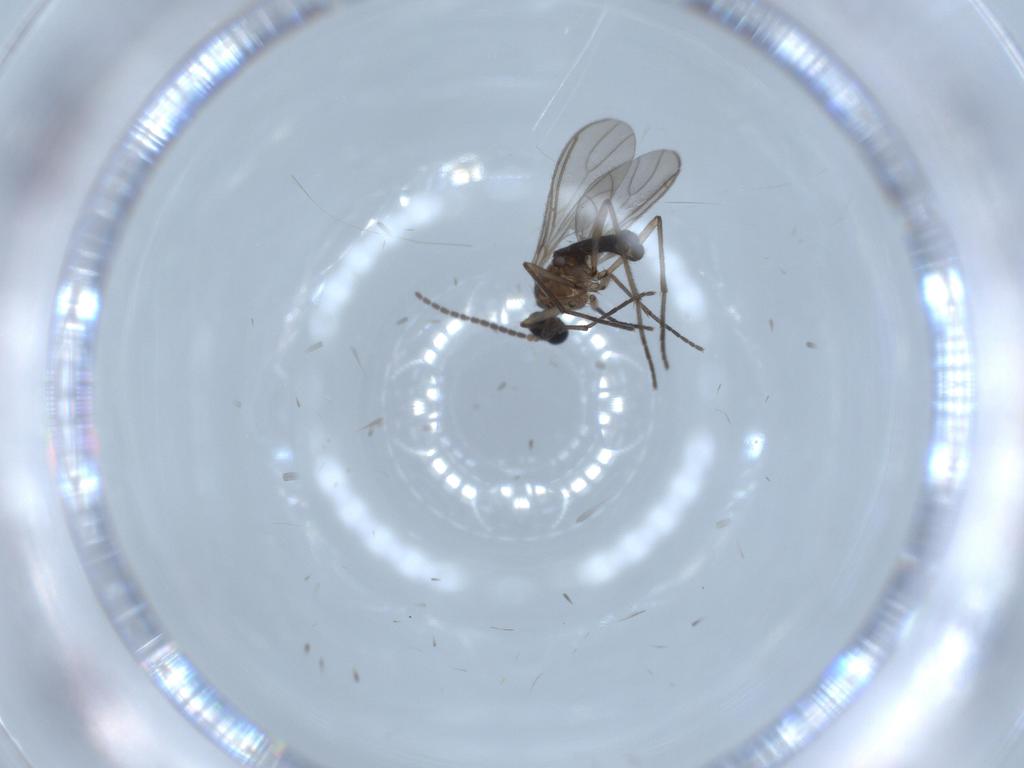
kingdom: Animalia
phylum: Arthropoda
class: Insecta
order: Diptera
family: Sciaridae
